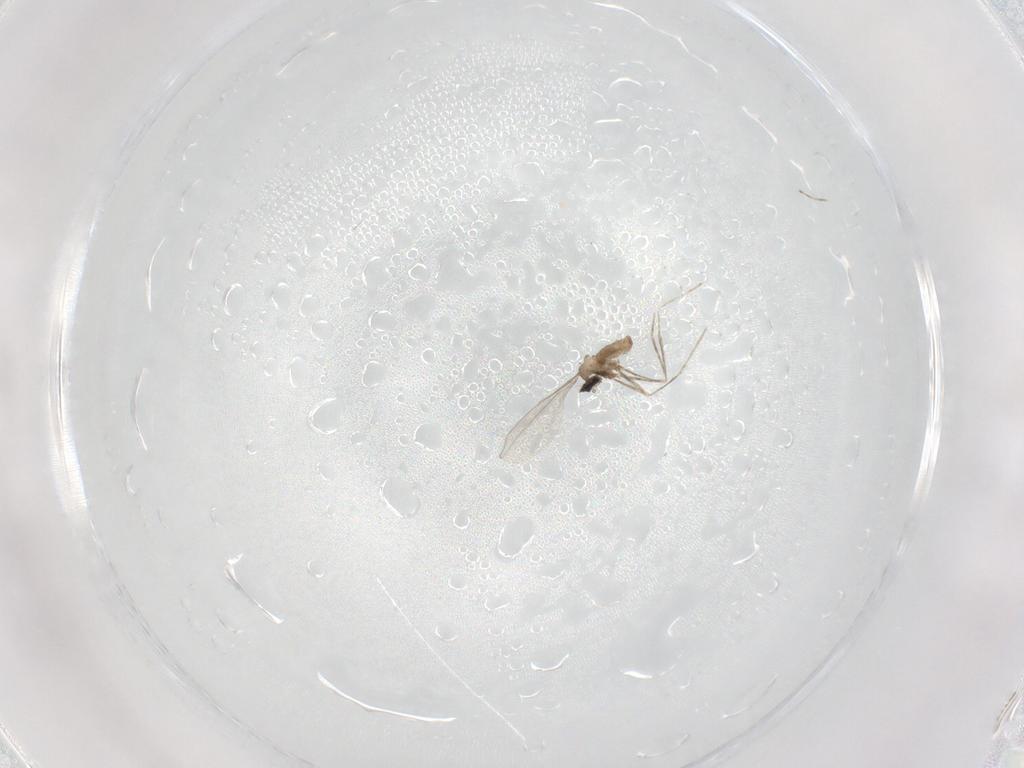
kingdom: Animalia
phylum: Arthropoda
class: Insecta
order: Diptera
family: Cecidomyiidae
